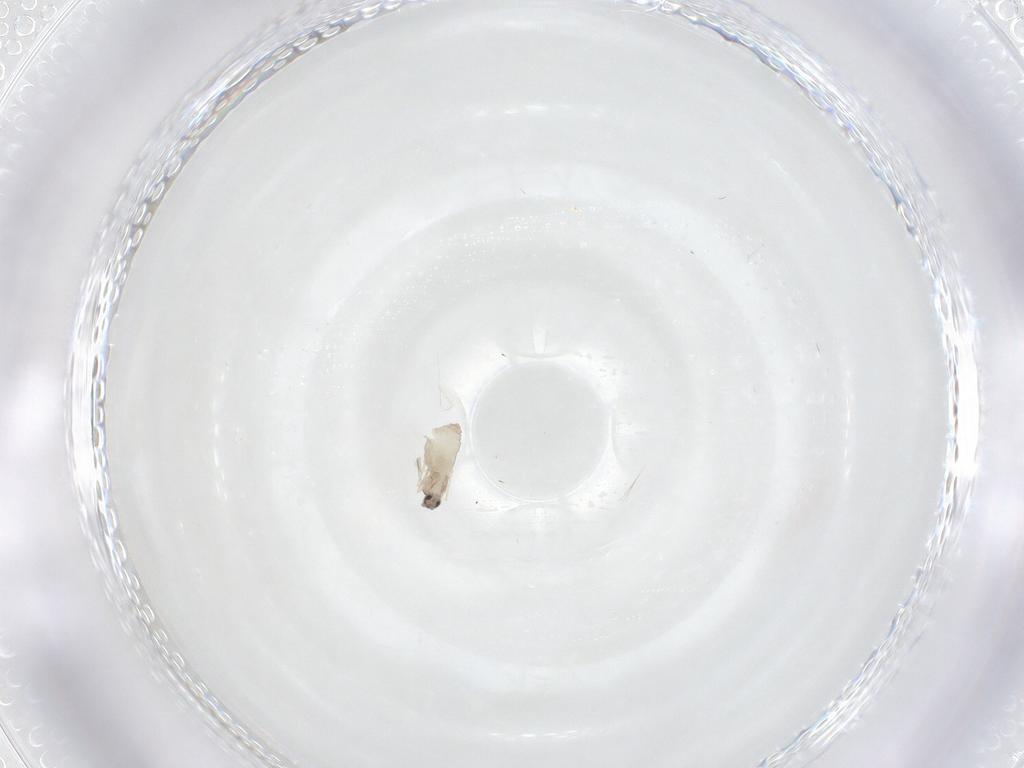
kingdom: Animalia
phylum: Arthropoda
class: Insecta
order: Diptera
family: Cecidomyiidae
